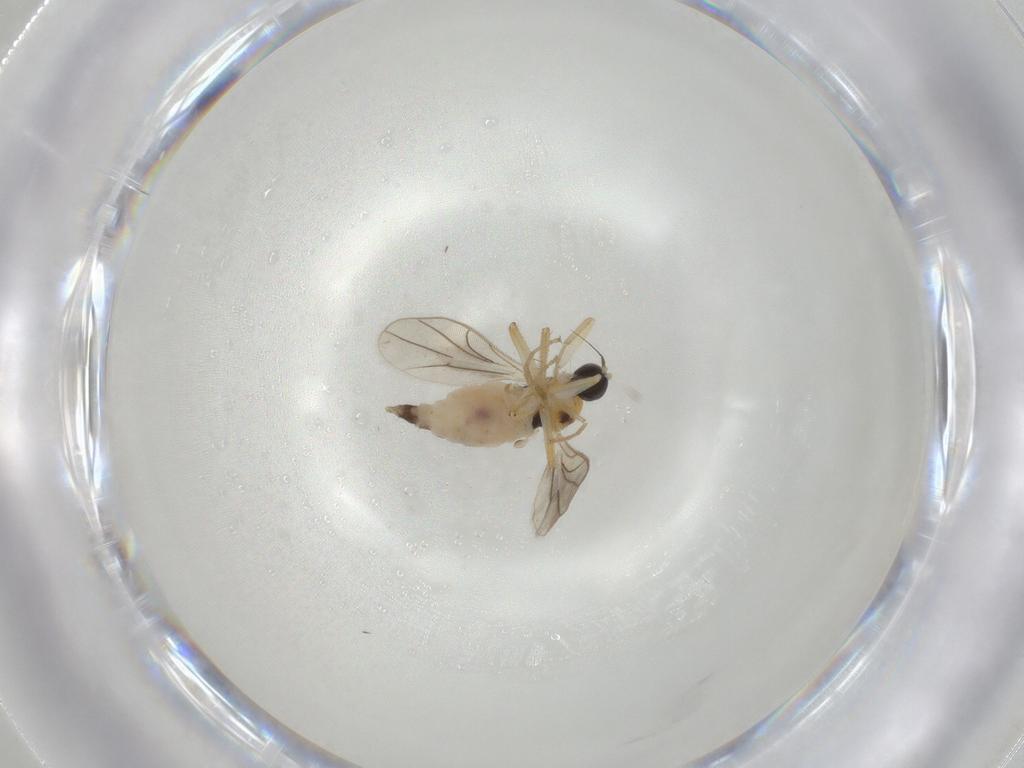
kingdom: Animalia
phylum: Arthropoda
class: Insecta
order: Diptera
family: Hybotidae
